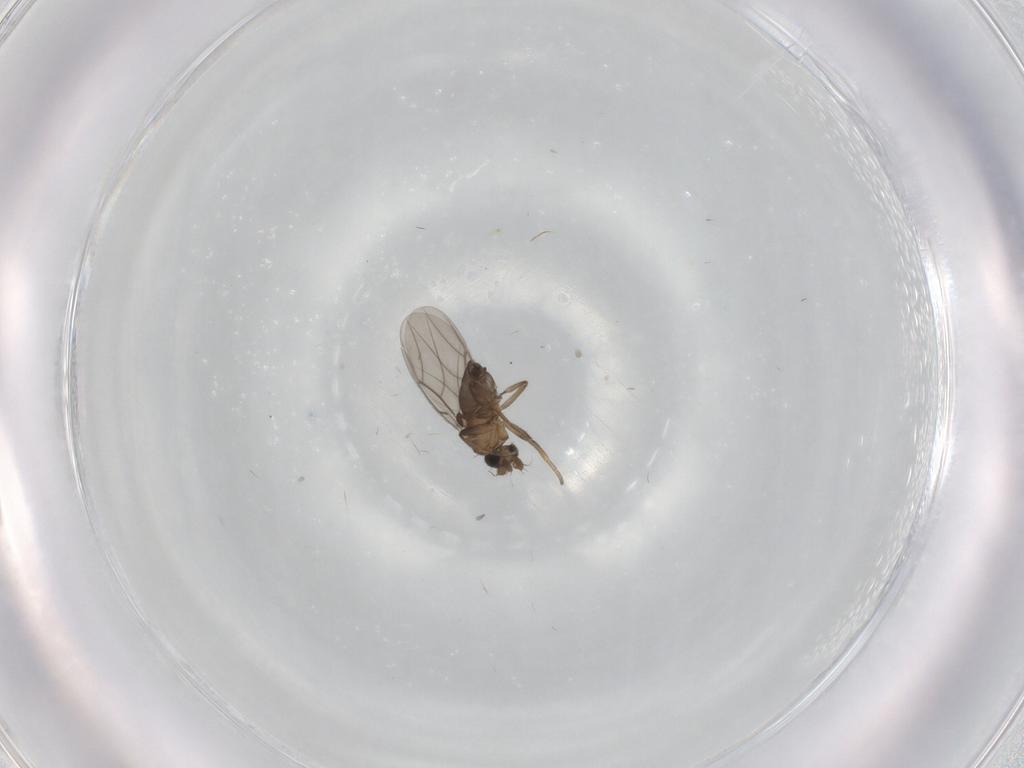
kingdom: Animalia
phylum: Arthropoda
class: Insecta
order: Diptera
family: Phoridae
